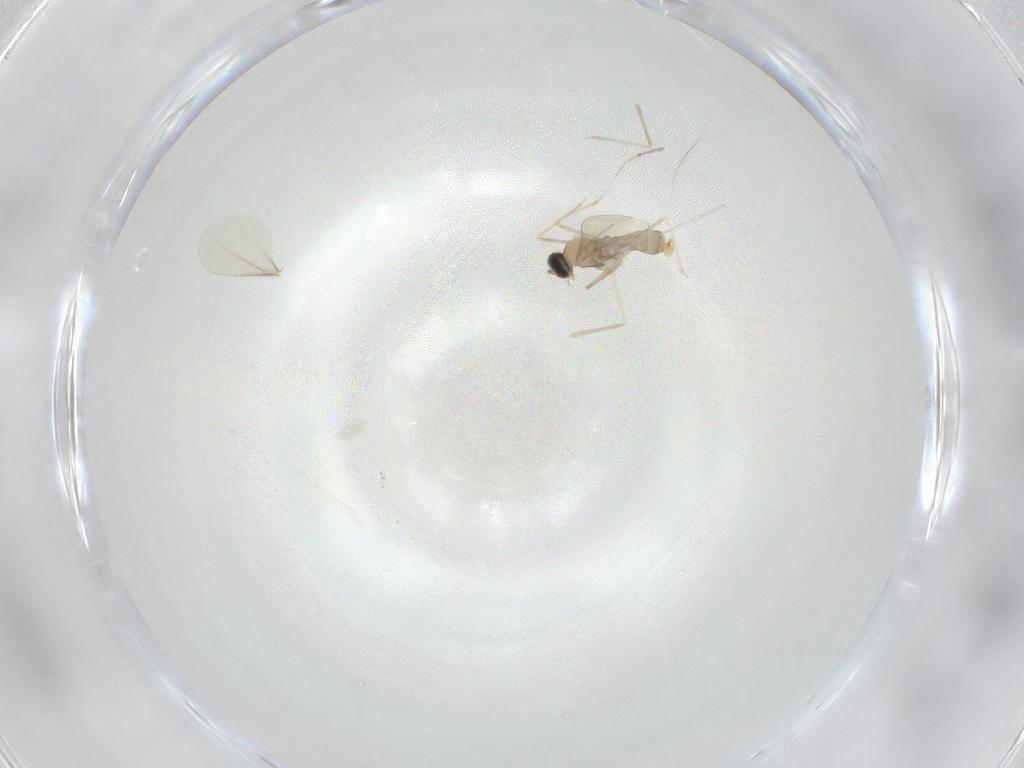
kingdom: Animalia
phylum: Arthropoda
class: Insecta
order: Diptera
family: Cecidomyiidae
